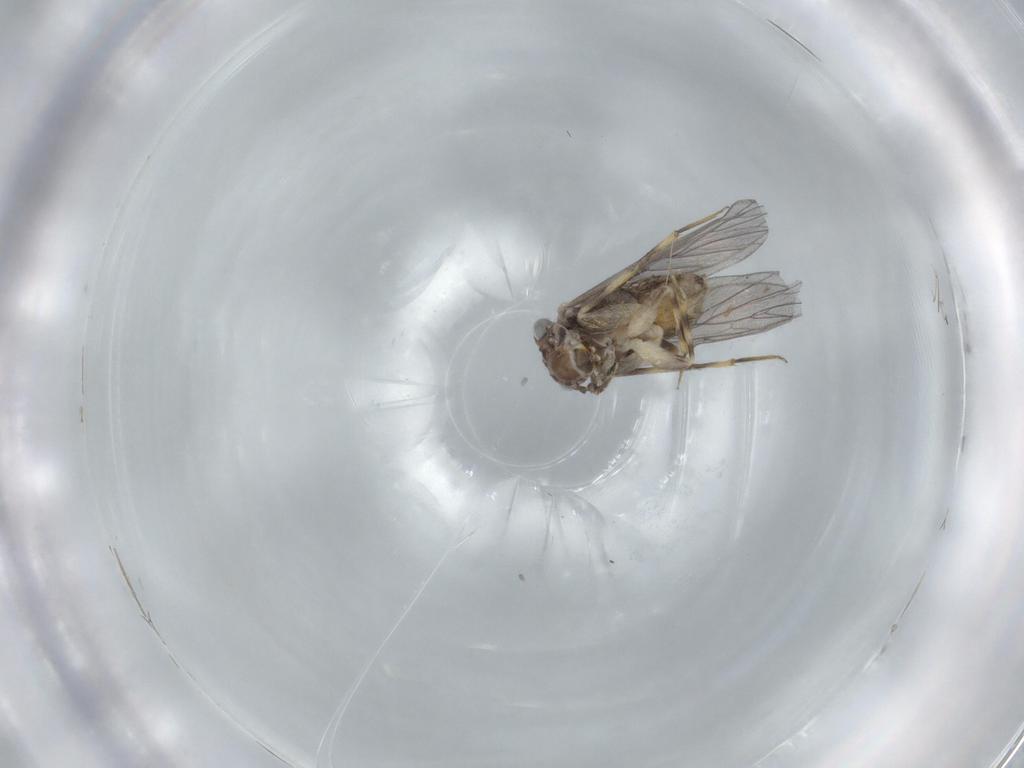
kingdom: Animalia
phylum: Arthropoda
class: Insecta
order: Psocodea
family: Lepidopsocidae
